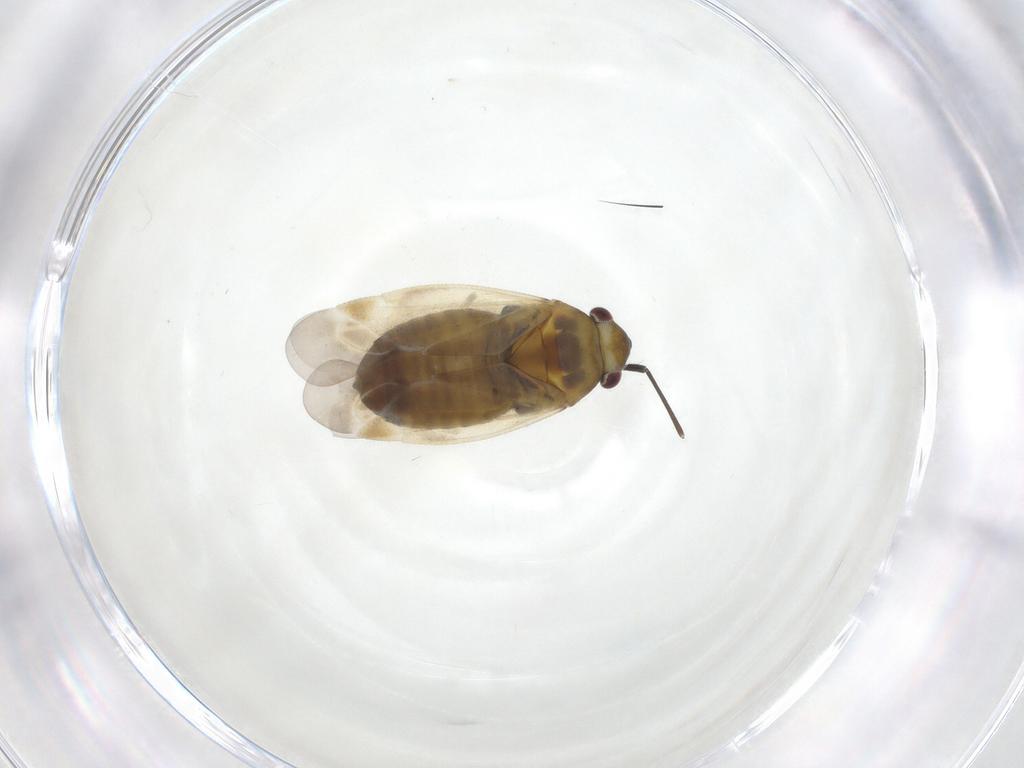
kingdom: Animalia
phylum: Arthropoda
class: Insecta
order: Hemiptera
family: Miridae
